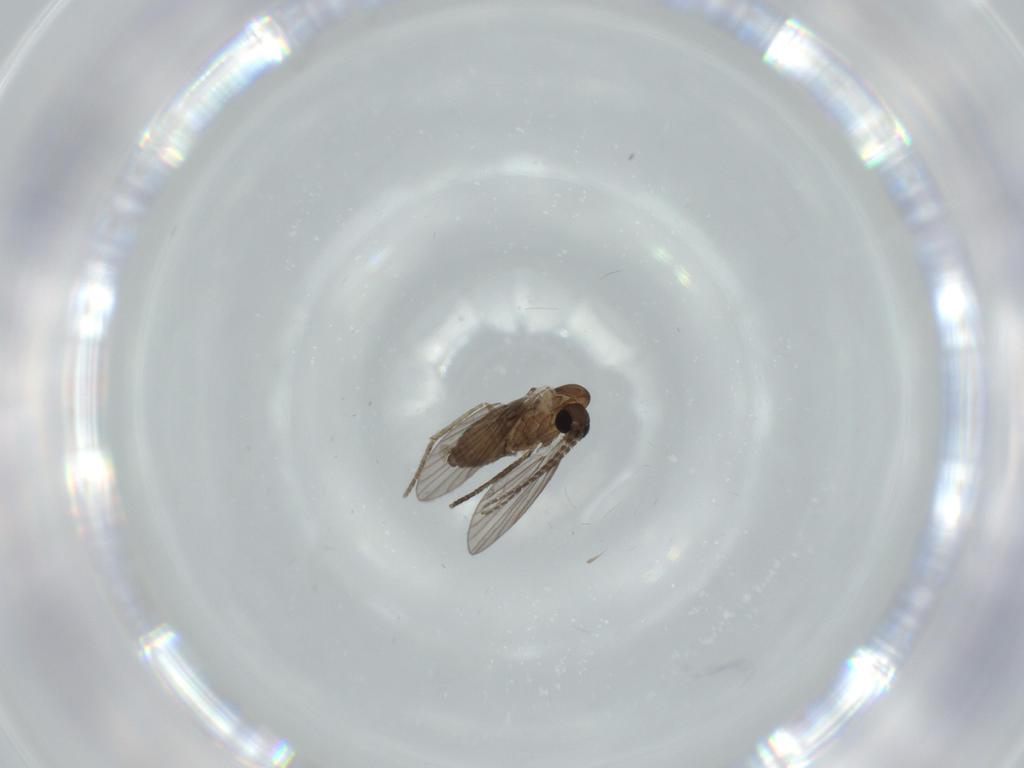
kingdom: Animalia
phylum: Arthropoda
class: Insecta
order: Diptera
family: Psychodidae
